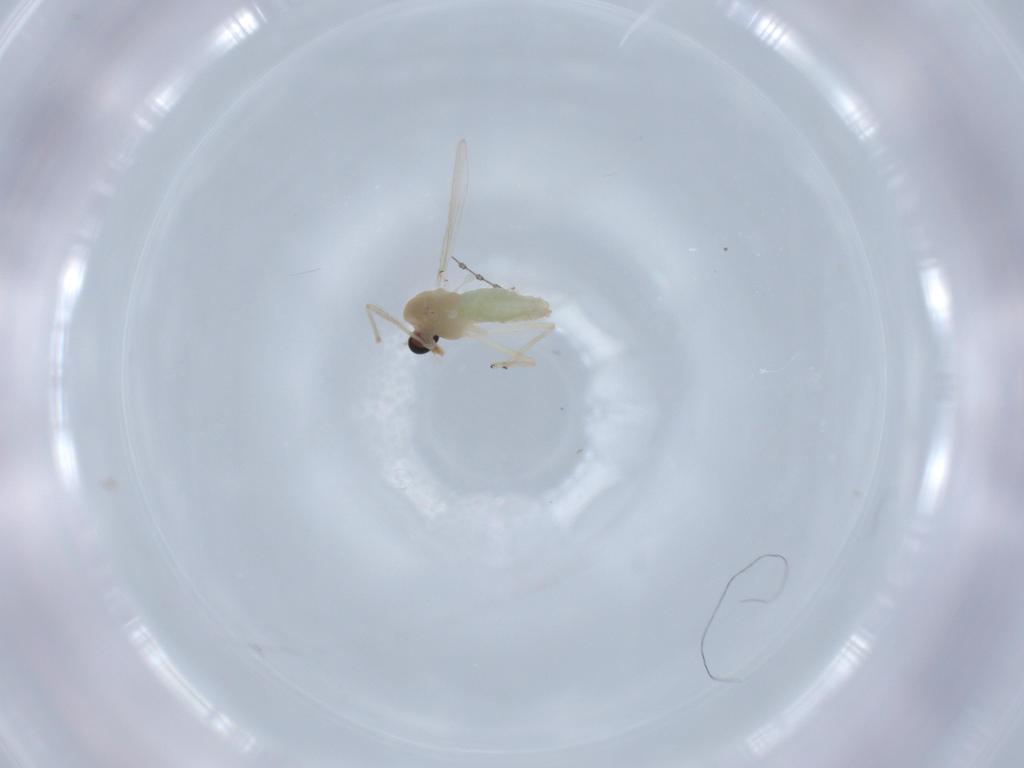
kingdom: Animalia
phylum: Arthropoda
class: Insecta
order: Diptera
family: Chironomidae
